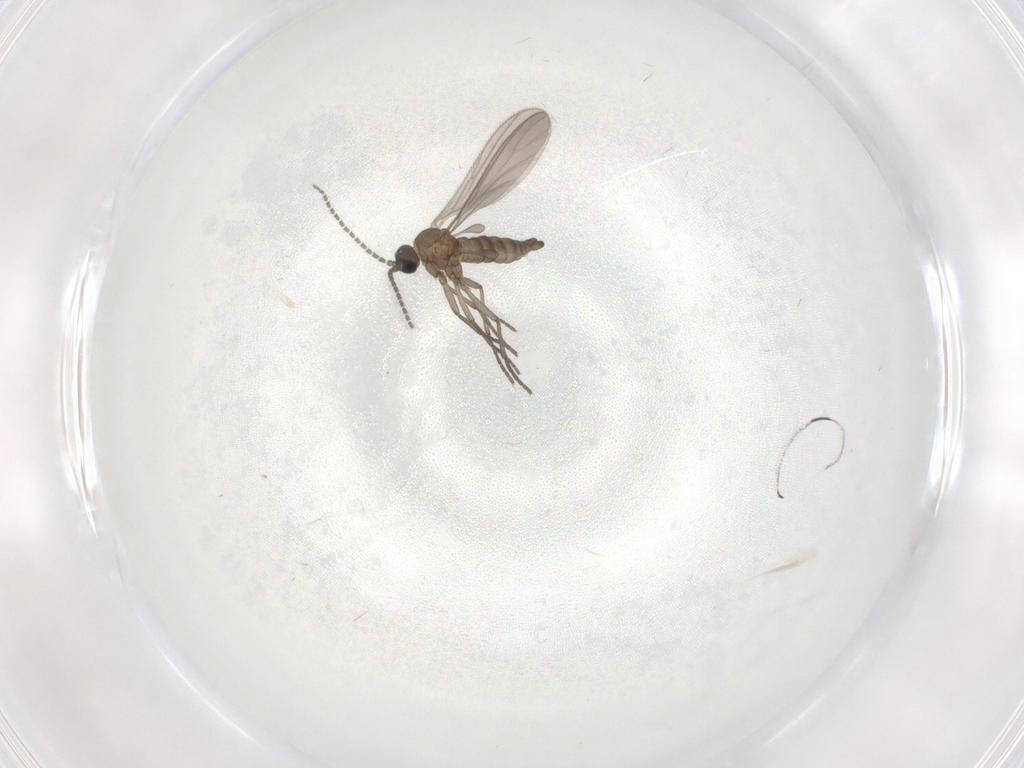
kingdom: Animalia
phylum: Arthropoda
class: Insecta
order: Diptera
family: Sciaridae
